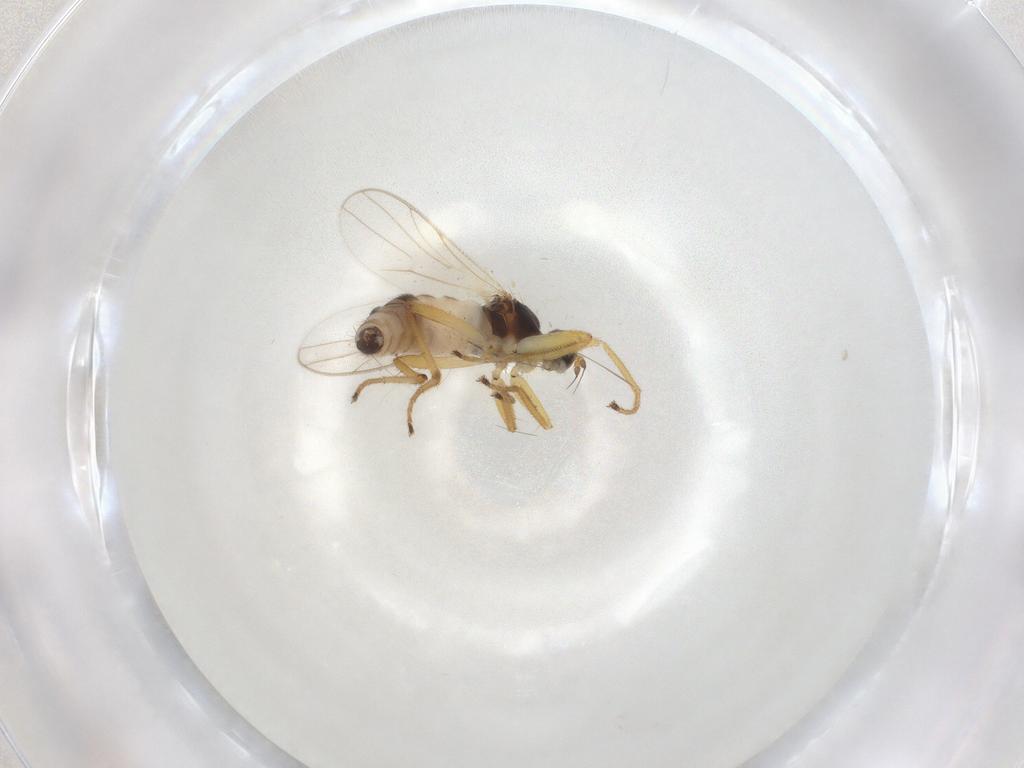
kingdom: Animalia
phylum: Arthropoda
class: Insecta
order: Diptera
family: Hybotidae
